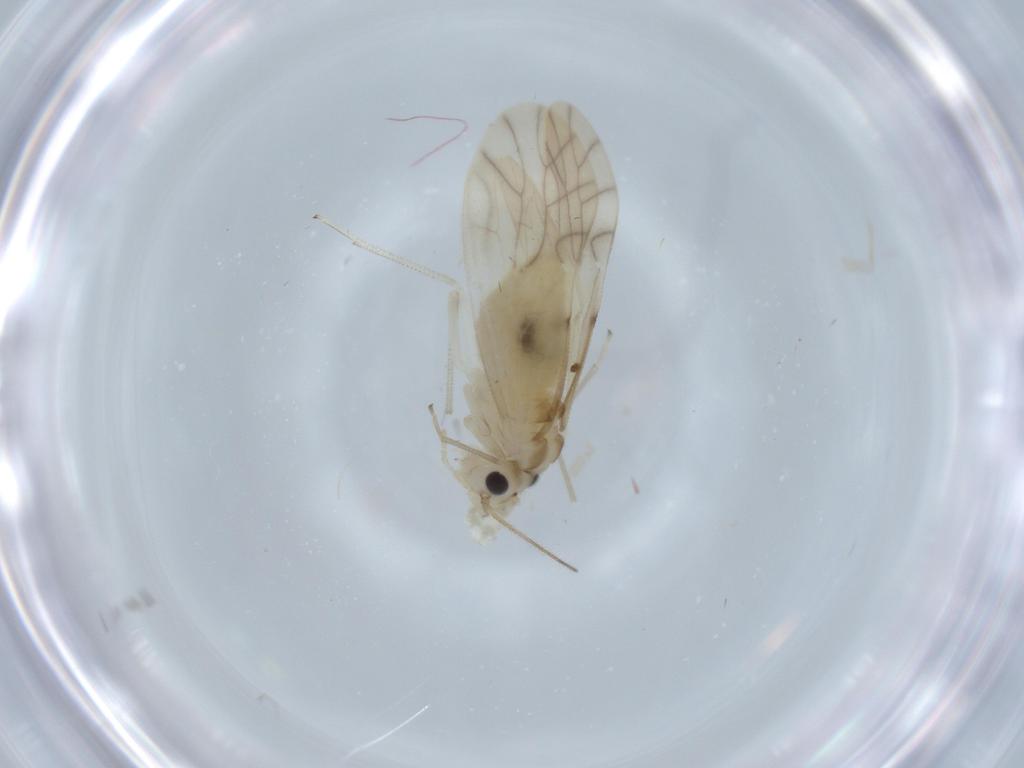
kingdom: Animalia
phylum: Arthropoda
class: Insecta
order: Psocodea
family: Caeciliusidae
